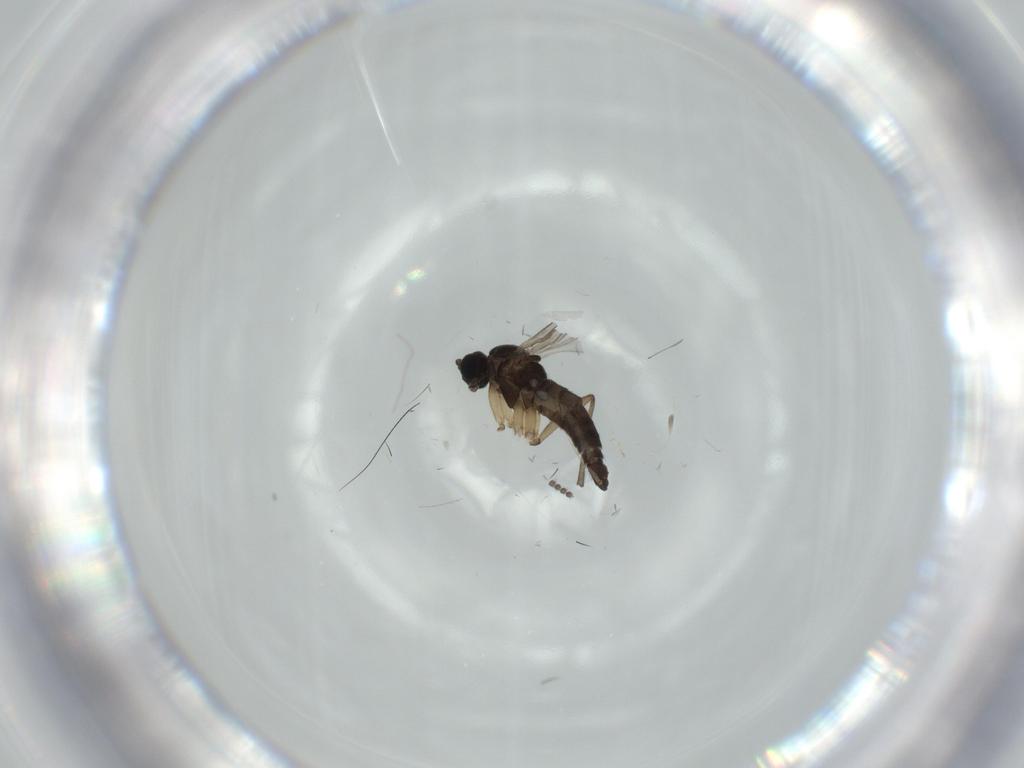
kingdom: Animalia
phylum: Arthropoda
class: Insecta
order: Diptera
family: Sciaridae
